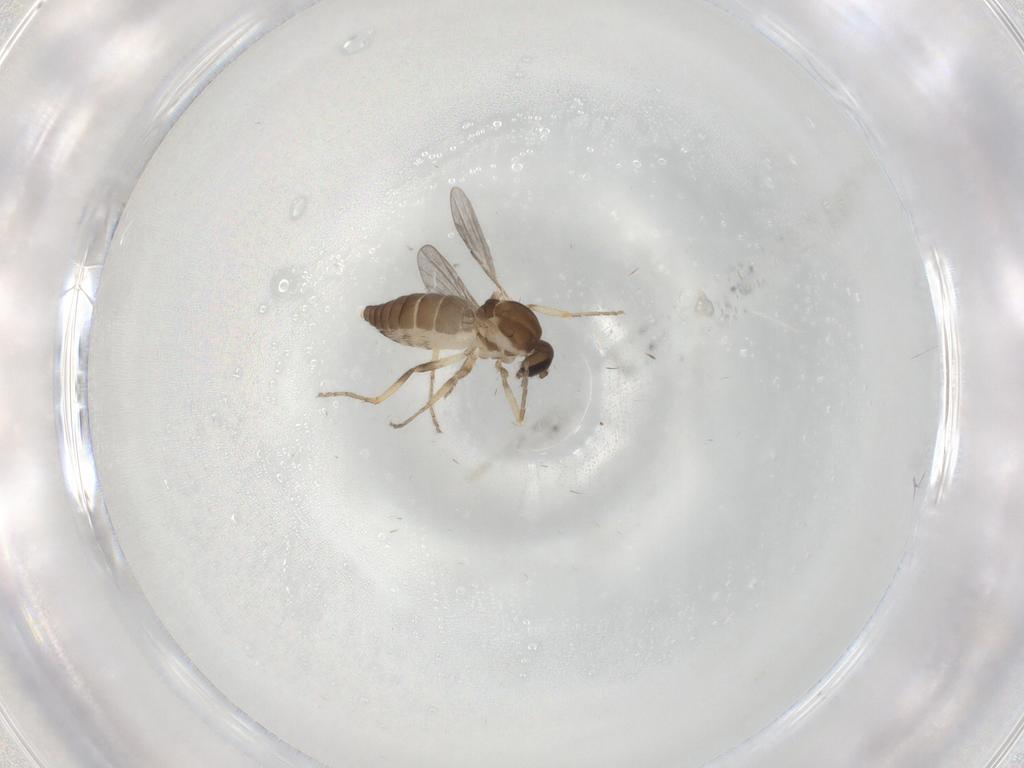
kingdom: Animalia
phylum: Arthropoda
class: Insecta
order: Diptera
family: Ceratopogonidae
